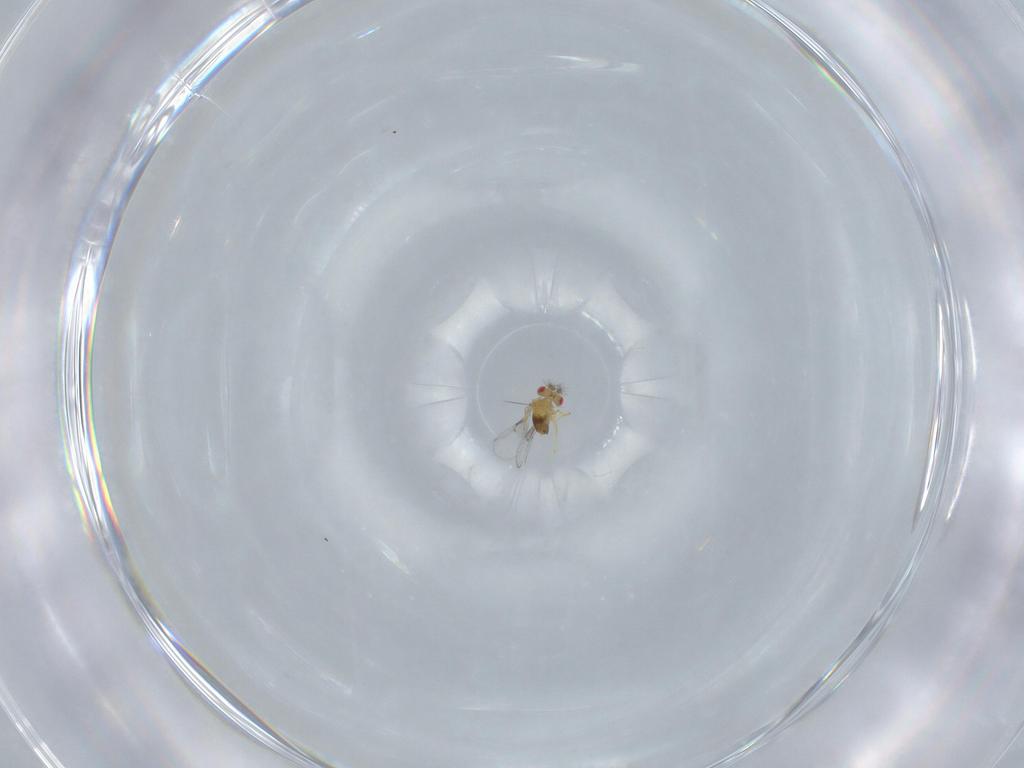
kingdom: Animalia
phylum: Arthropoda
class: Insecta
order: Hymenoptera
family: Trichogrammatidae
